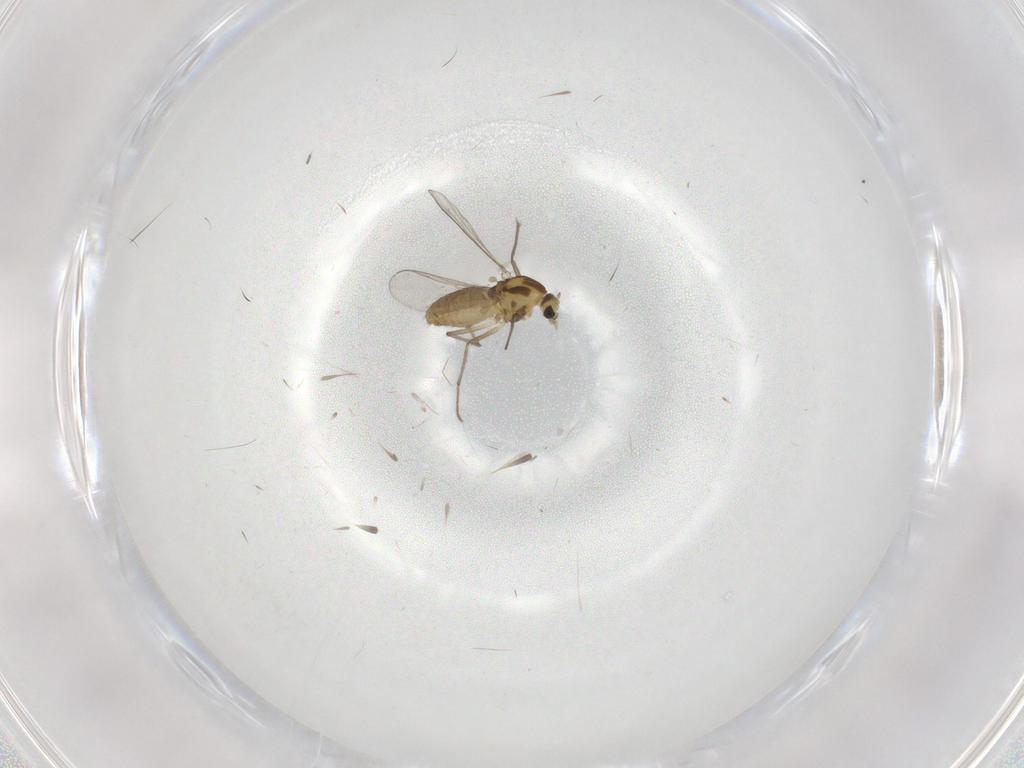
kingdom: Animalia
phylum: Arthropoda
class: Insecta
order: Diptera
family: Chironomidae
